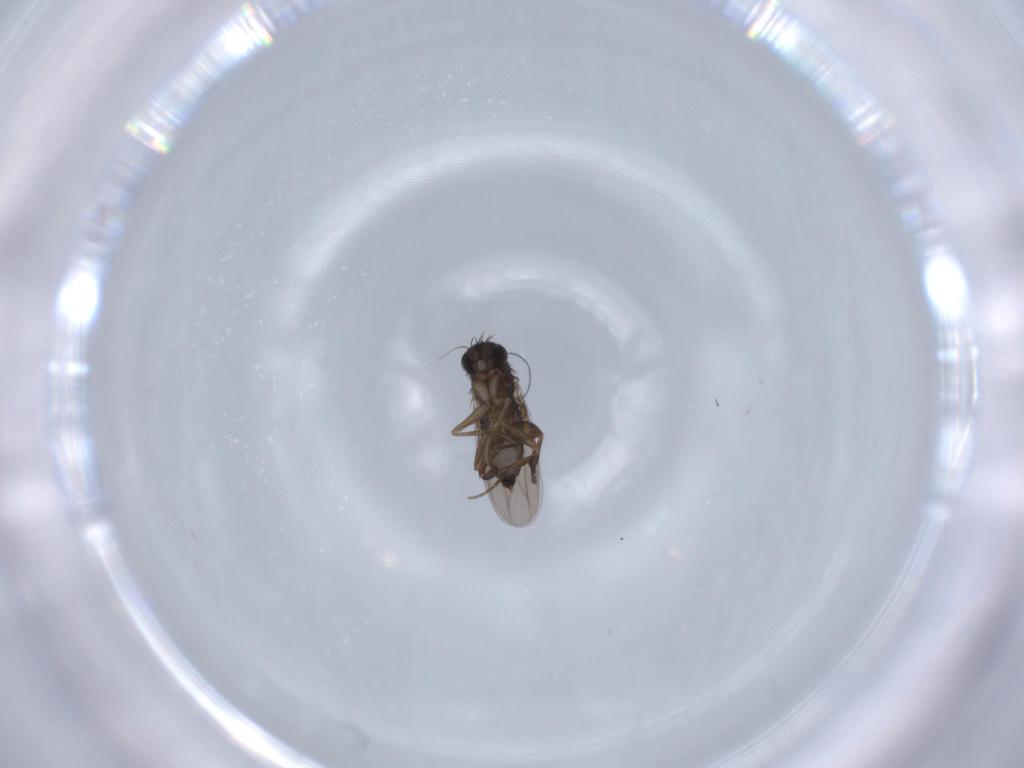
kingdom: Animalia
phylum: Arthropoda
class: Insecta
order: Diptera
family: Phoridae
